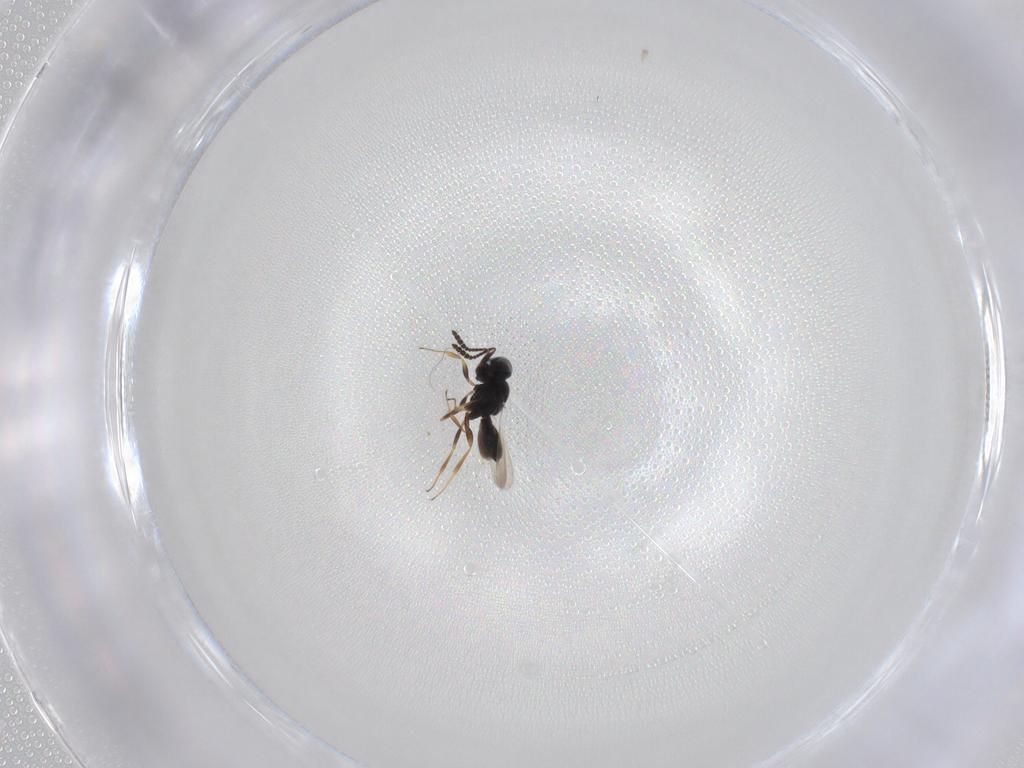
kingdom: Animalia
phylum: Arthropoda
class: Insecta
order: Hymenoptera
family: Scelionidae
